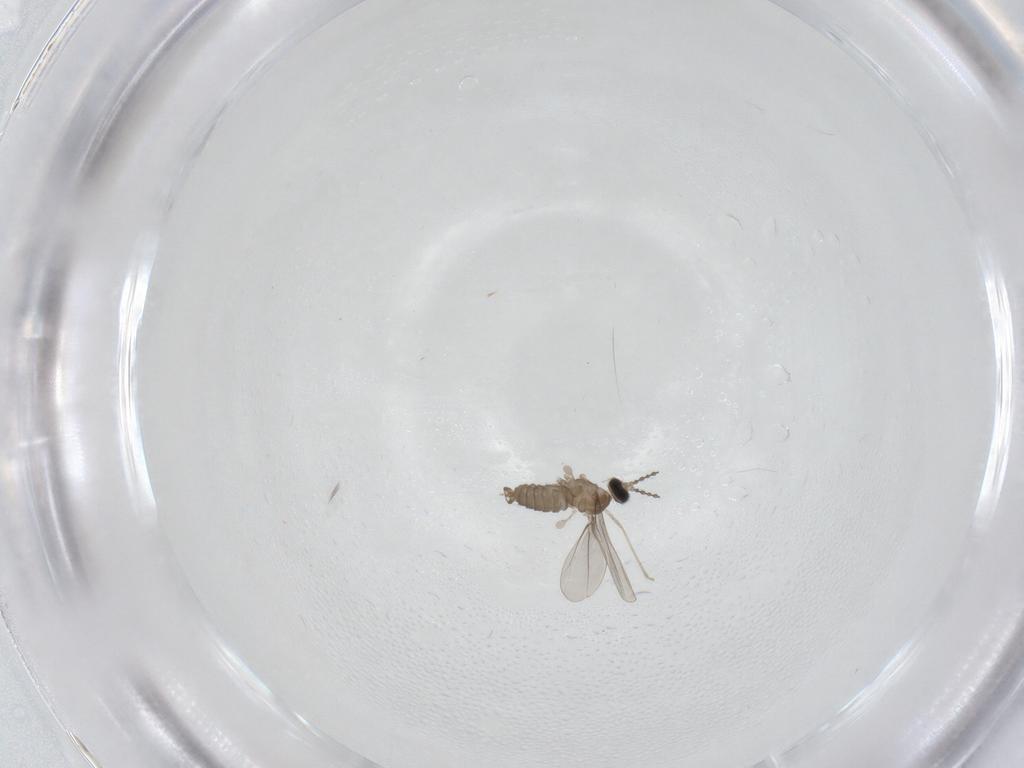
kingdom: Animalia
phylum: Arthropoda
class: Insecta
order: Diptera
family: Cecidomyiidae
